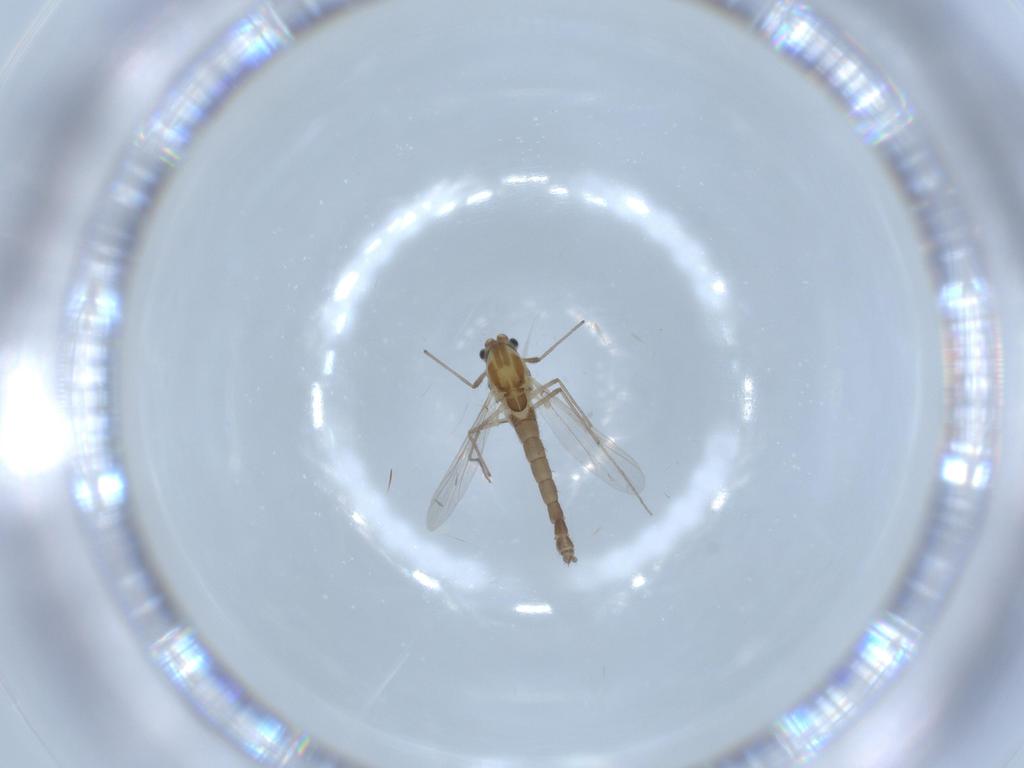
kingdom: Animalia
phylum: Arthropoda
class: Insecta
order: Diptera
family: Chironomidae
